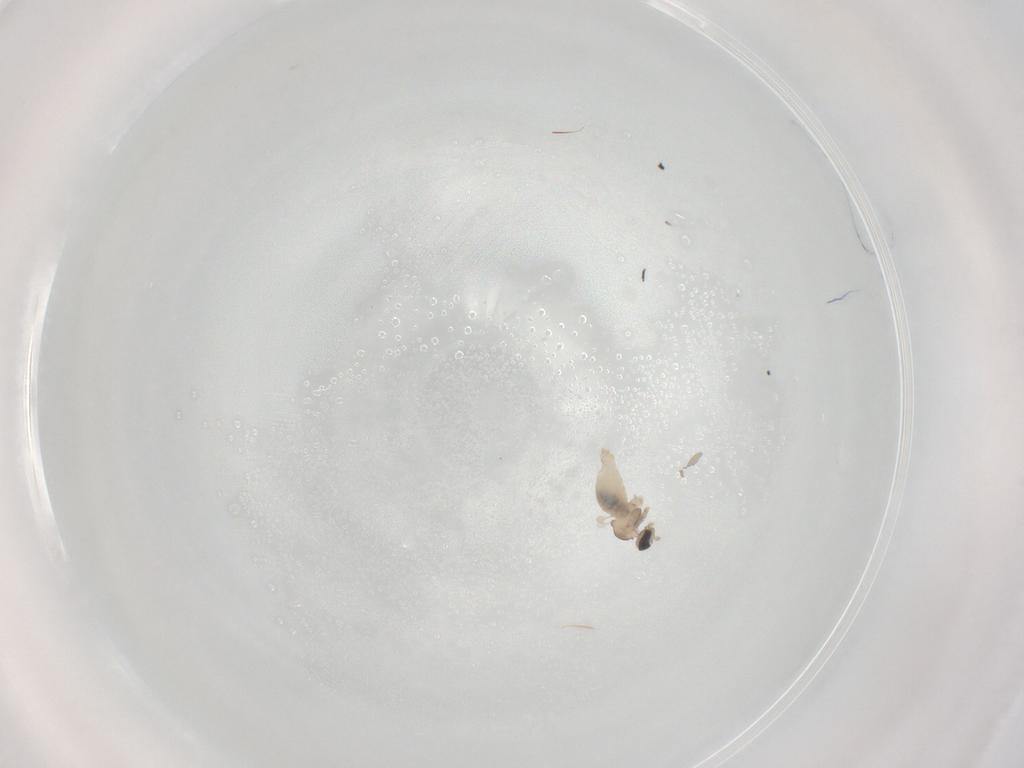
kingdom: Animalia
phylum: Arthropoda
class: Insecta
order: Diptera
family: Cecidomyiidae
